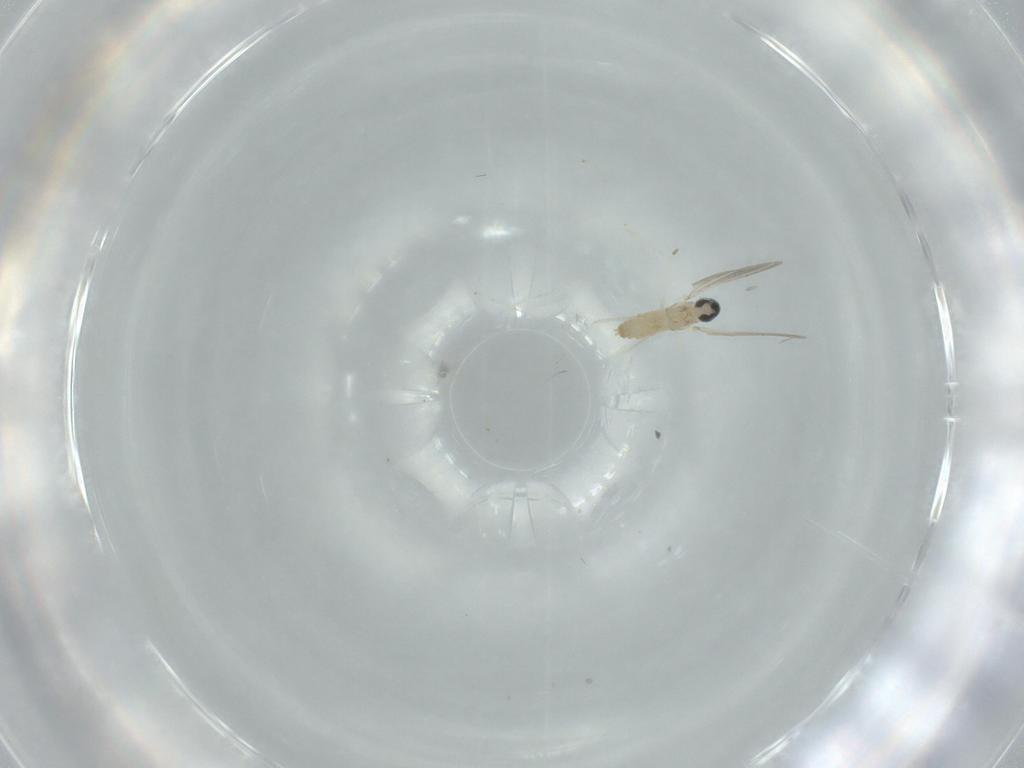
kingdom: Animalia
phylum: Arthropoda
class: Insecta
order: Diptera
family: Cecidomyiidae
